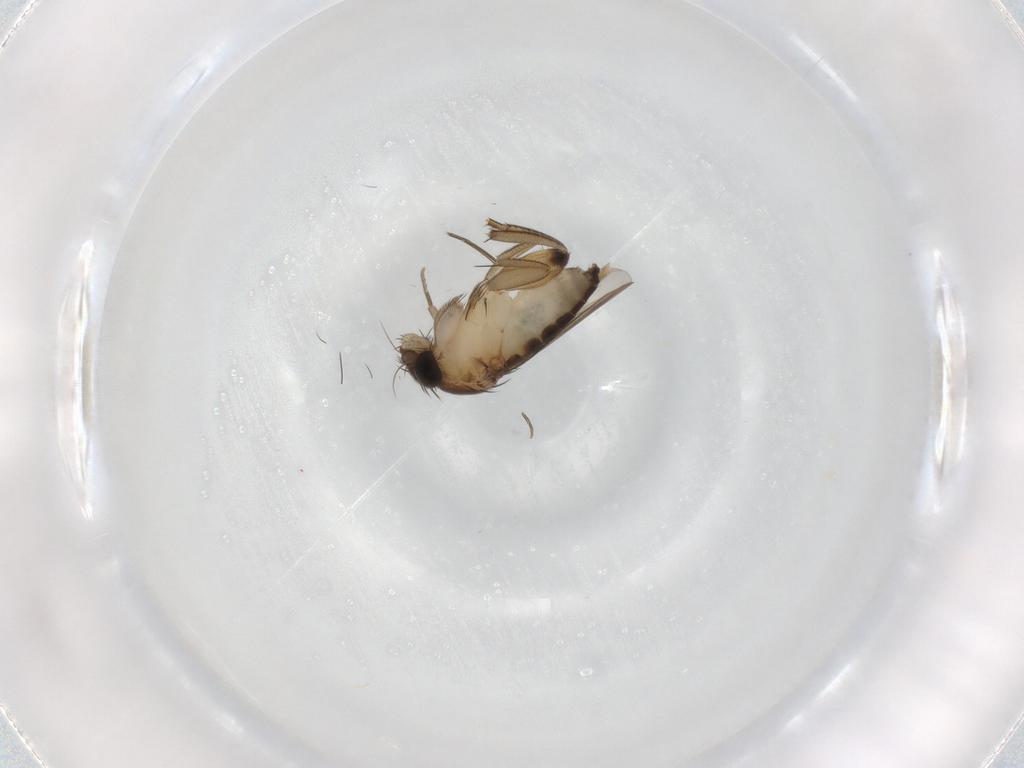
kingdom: Animalia
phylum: Arthropoda
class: Insecta
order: Diptera
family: Phoridae
